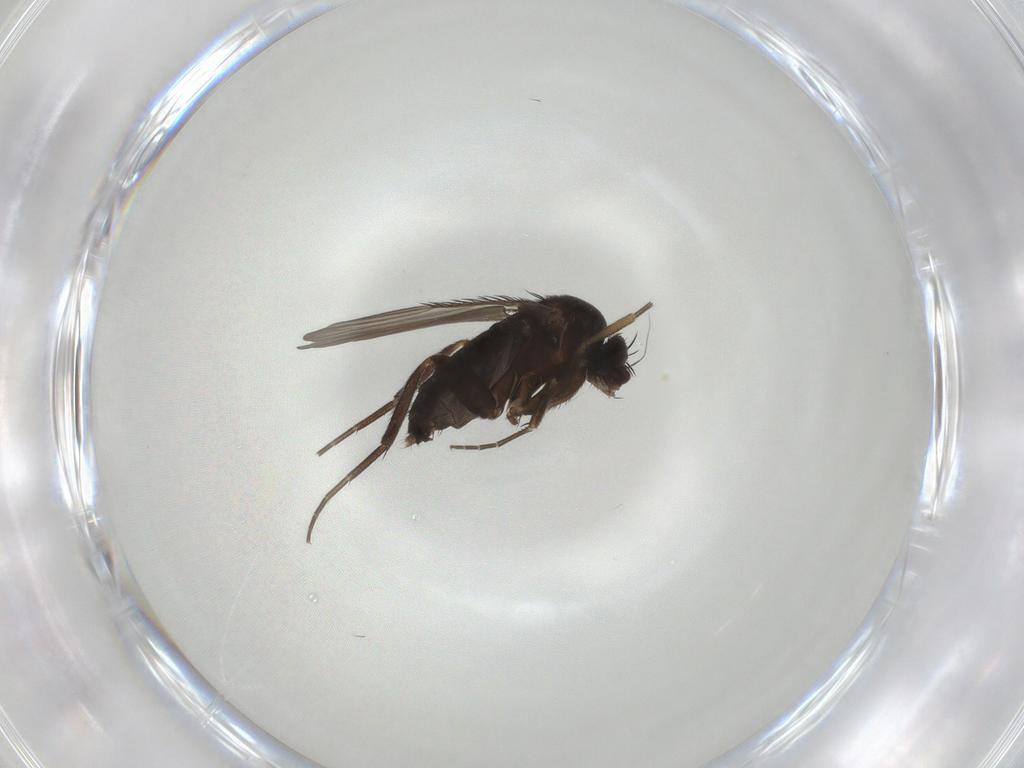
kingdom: Animalia
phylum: Arthropoda
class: Insecta
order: Diptera
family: Phoridae
